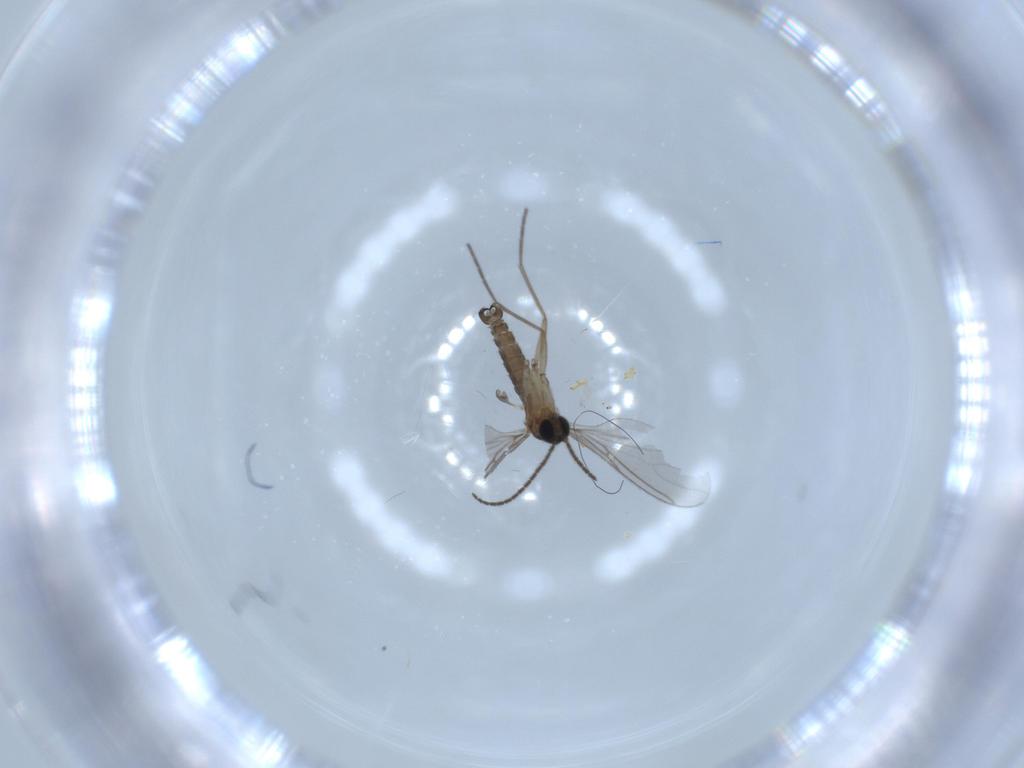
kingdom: Animalia
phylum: Arthropoda
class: Insecta
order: Diptera
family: Sciaridae
